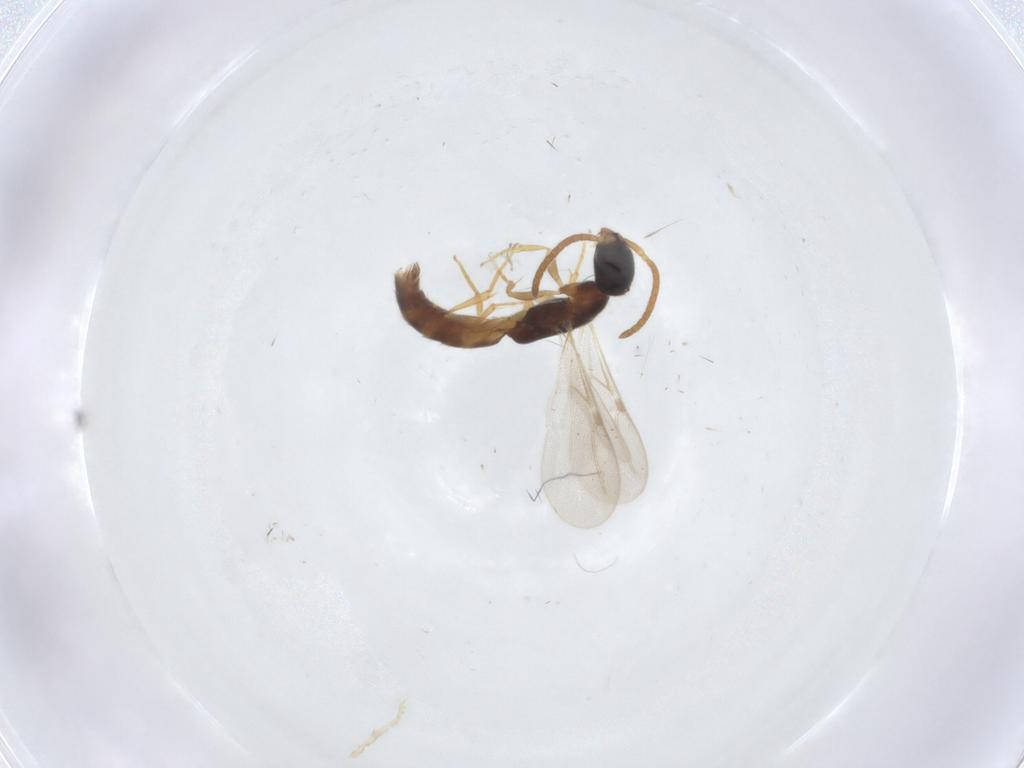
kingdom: Animalia
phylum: Arthropoda
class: Insecta
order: Hymenoptera
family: Bethylidae
